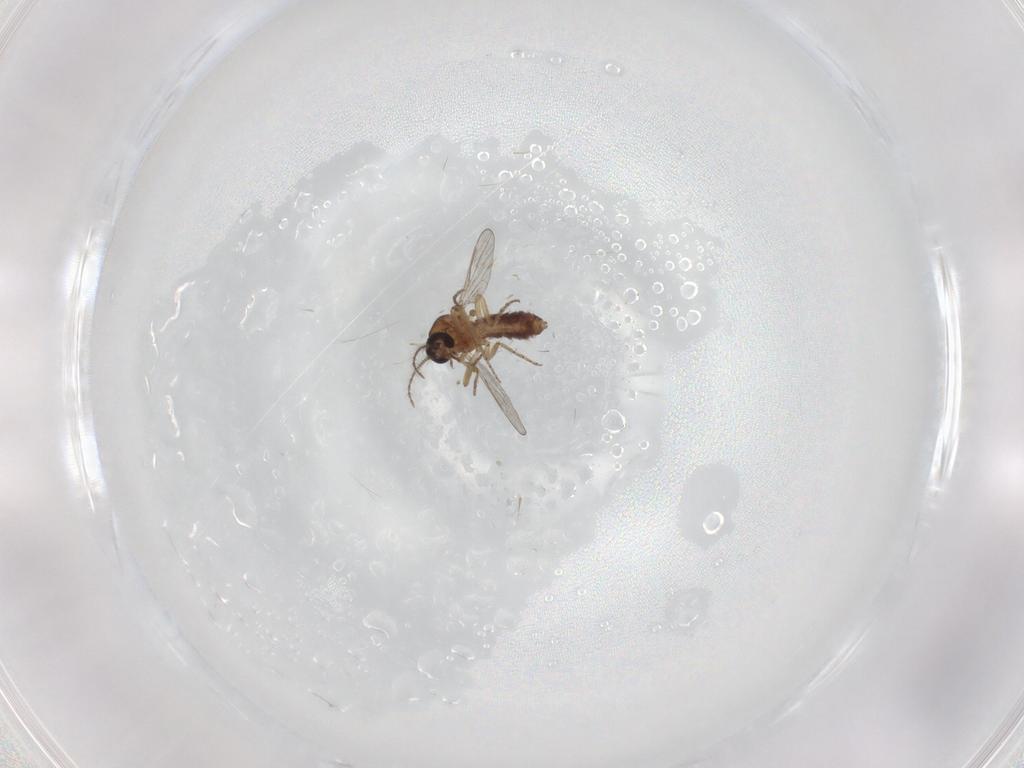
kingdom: Animalia
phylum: Arthropoda
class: Insecta
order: Diptera
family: Chironomidae
